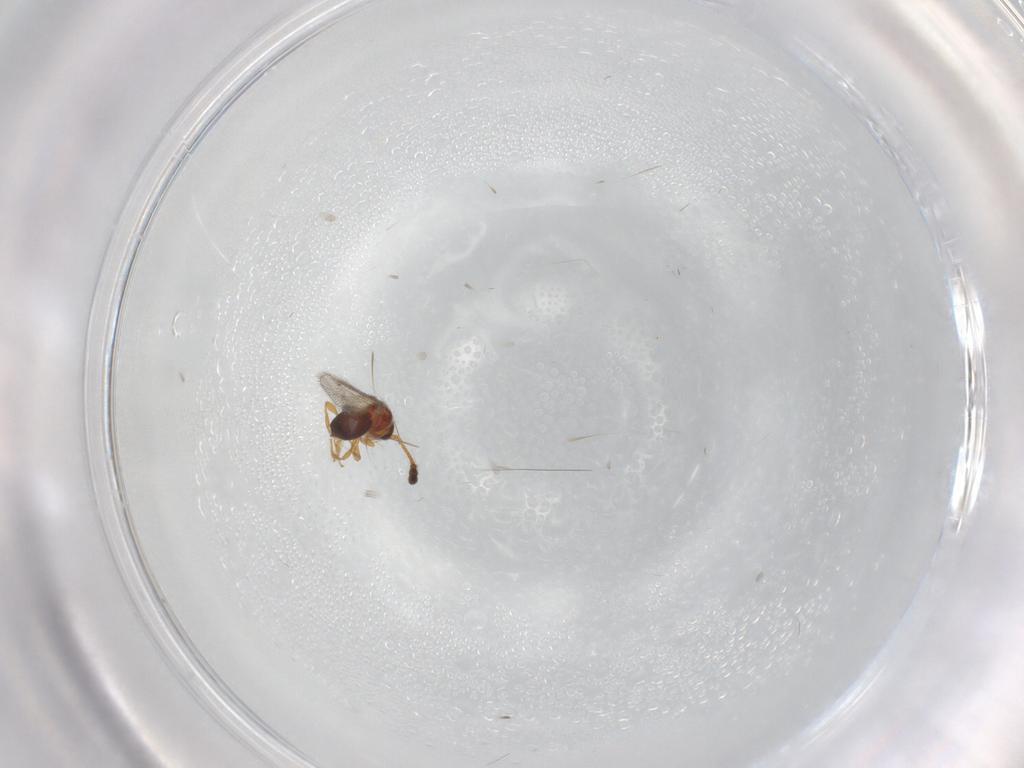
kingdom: Animalia
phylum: Arthropoda
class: Insecta
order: Hymenoptera
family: Diapriidae
